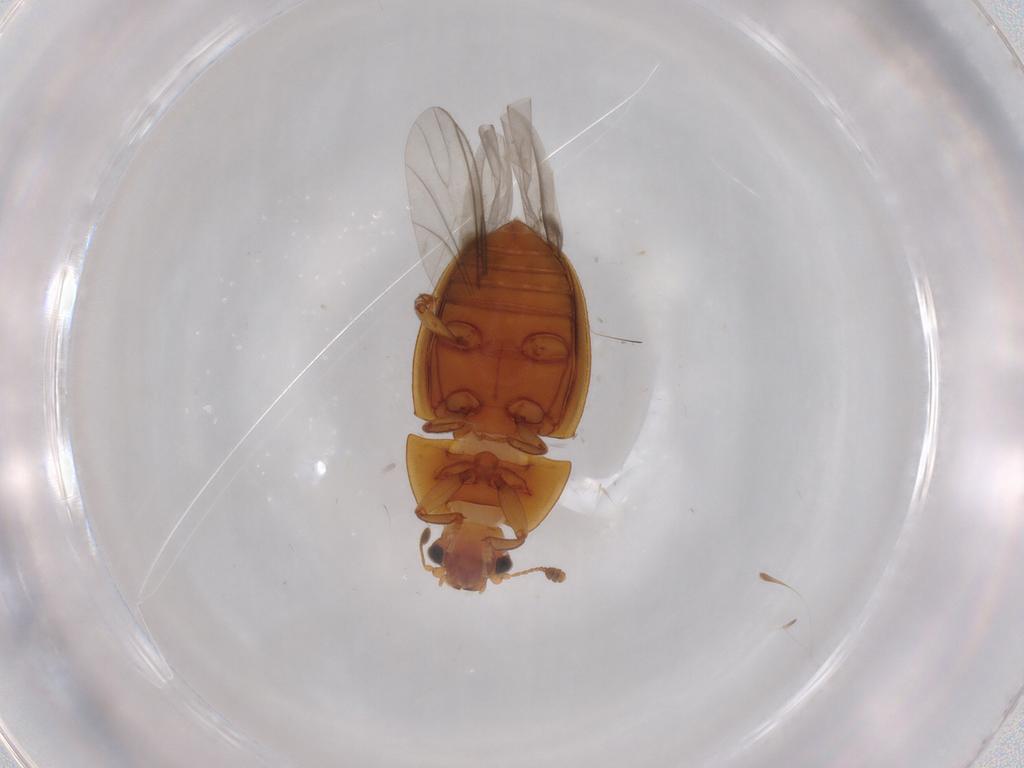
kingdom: Animalia
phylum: Arthropoda
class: Insecta
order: Coleoptera
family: Nitidulidae
